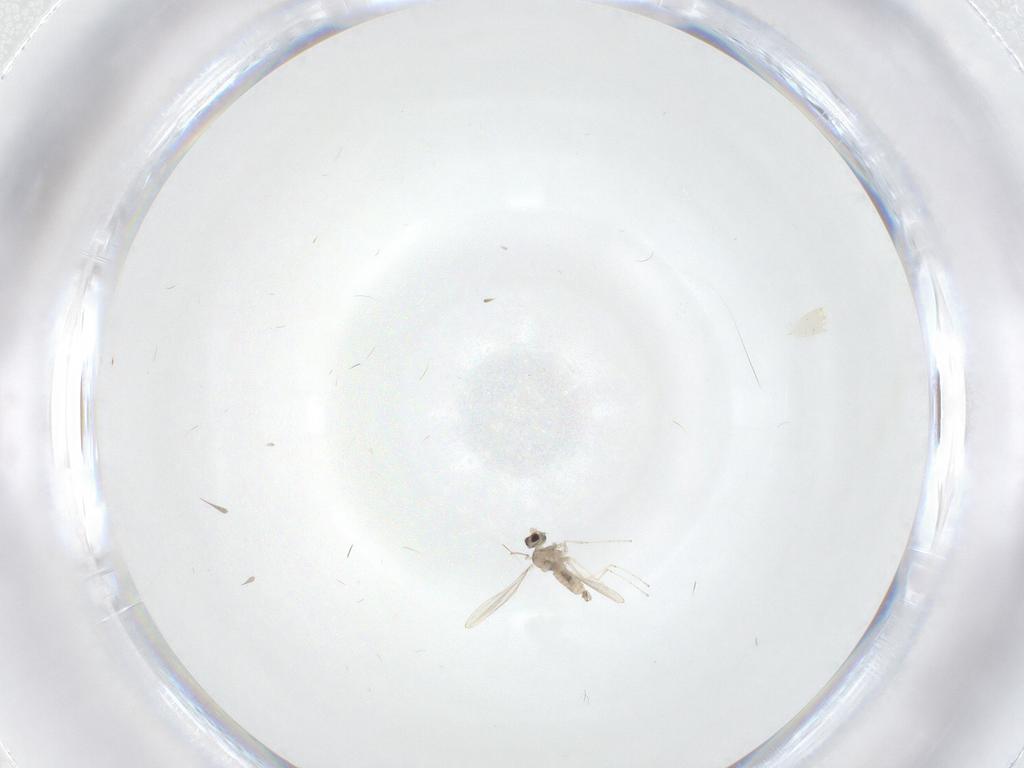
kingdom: Animalia
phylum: Arthropoda
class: Insecta
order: Diptera
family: Cecidomyiidae
